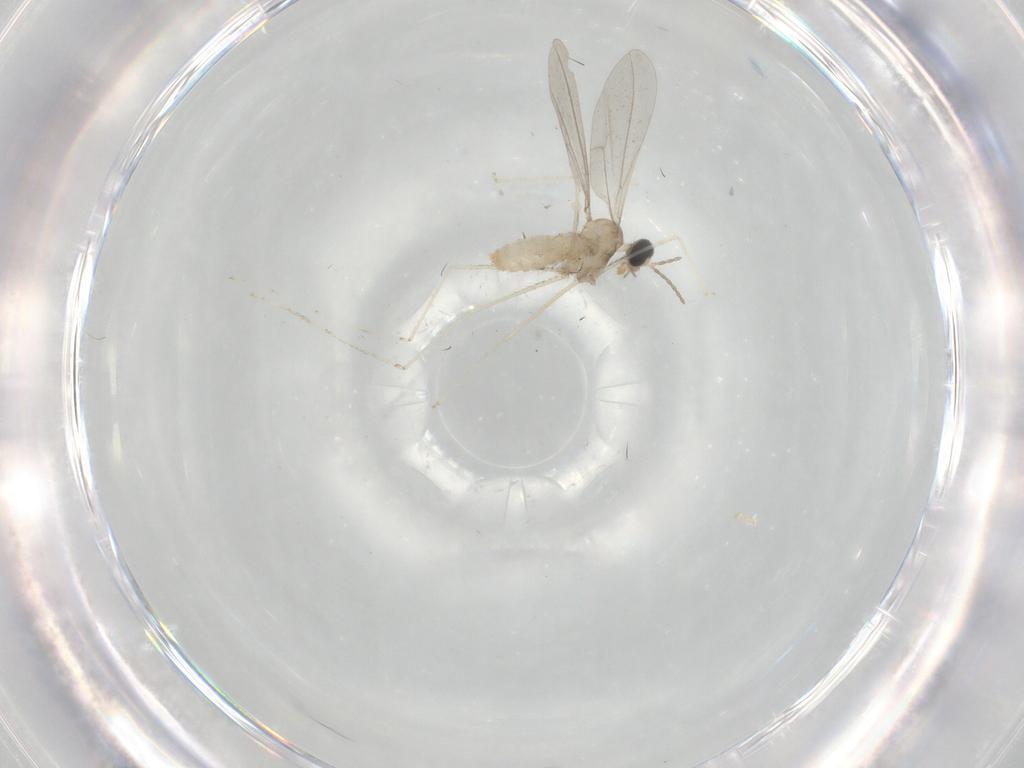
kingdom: Animalia
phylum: Arthropoda
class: Insecta
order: Diptera
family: Cecidomyiidae
